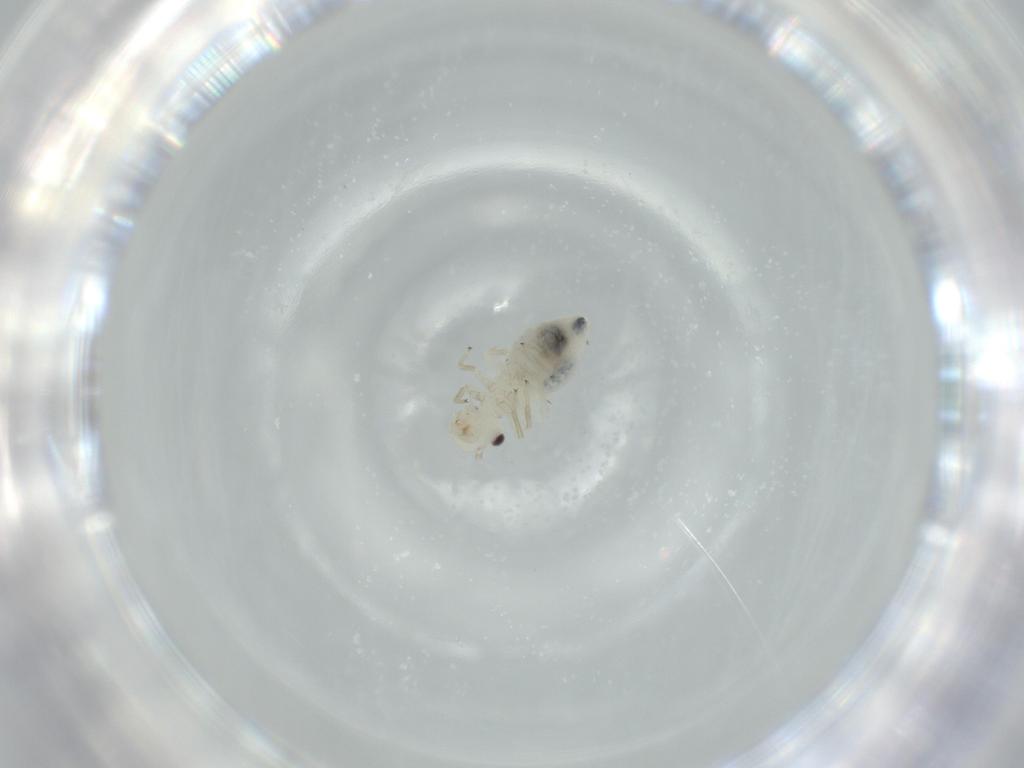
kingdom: Animalia
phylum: Arthropoda
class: Insecta
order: Psocodea
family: Caeciliusidae
